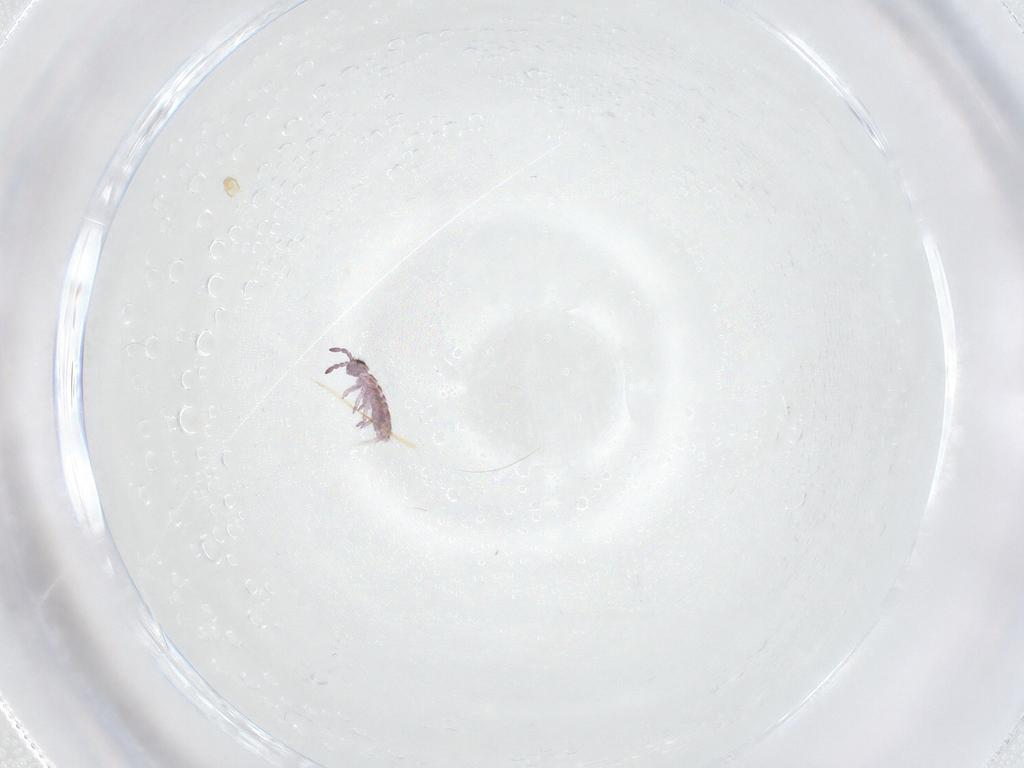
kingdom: Animalia
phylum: Arthropoda
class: Collembola
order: Entomobryomorpha
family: Isotomidae
